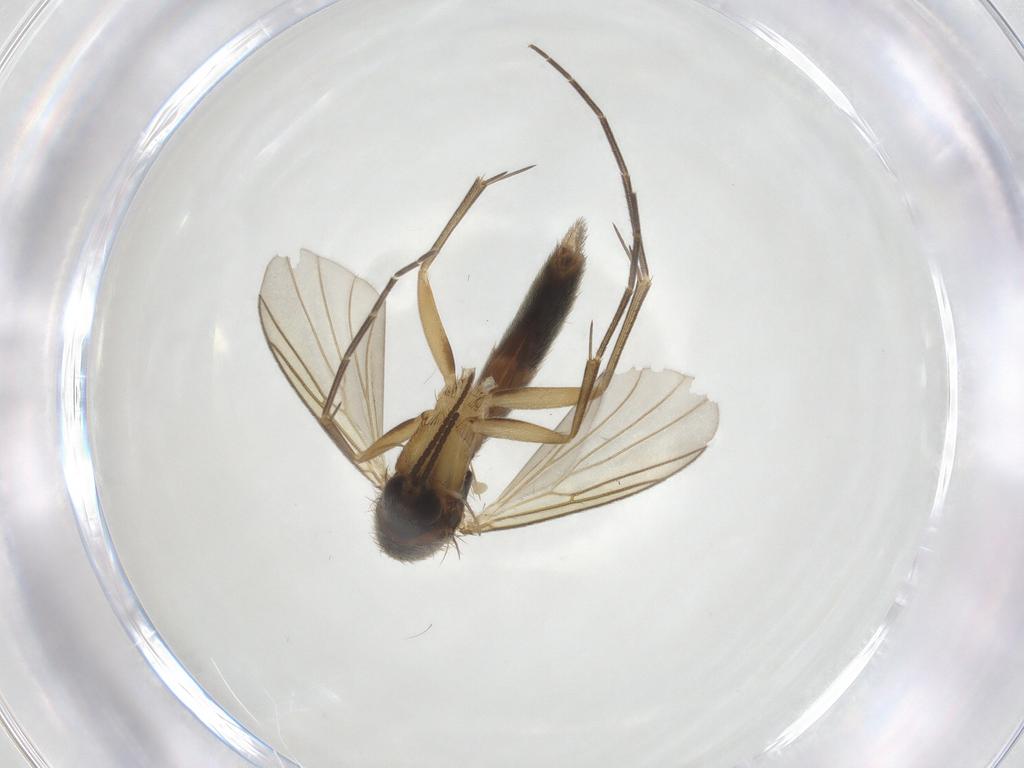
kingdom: Animalia
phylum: Arthropoda
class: Insecta
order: Diptera
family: Mycetophilidae
